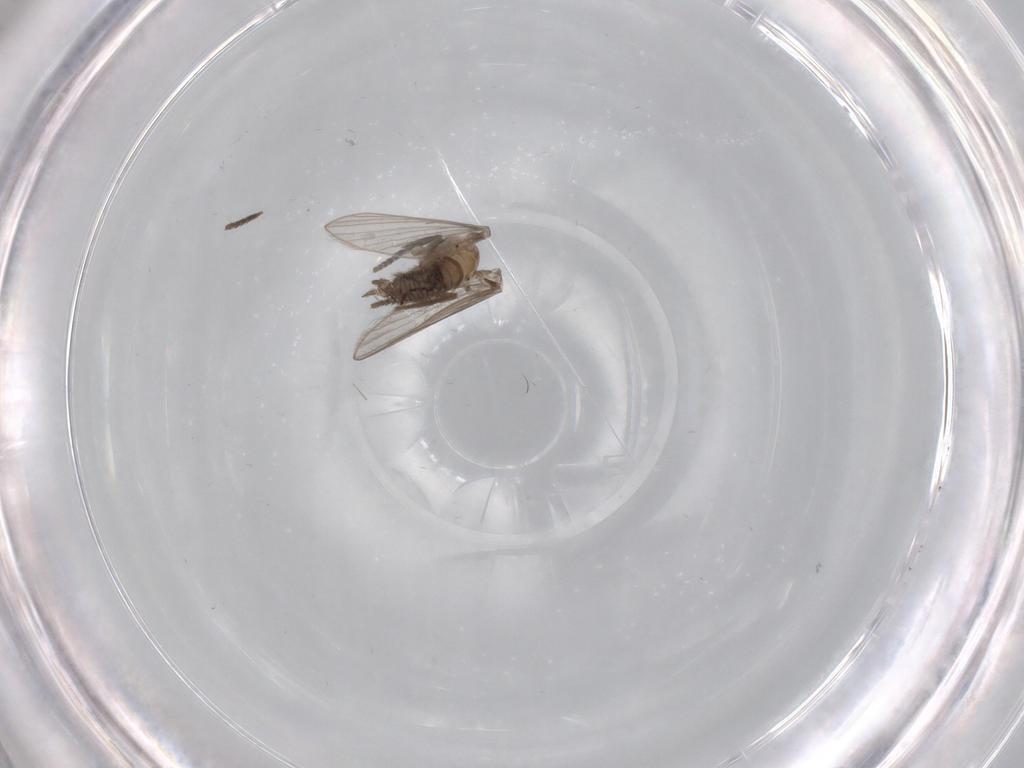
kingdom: Animalia
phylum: Arthropoda
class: Insecta
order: Diptera
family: Psychodidae
